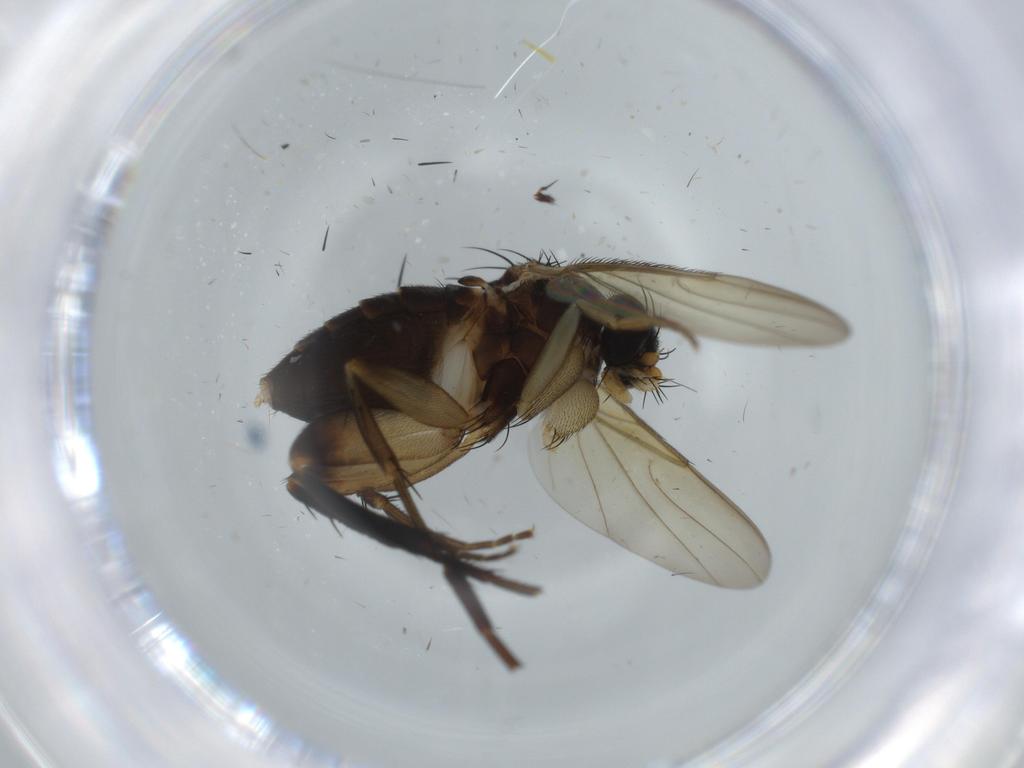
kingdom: Animalia
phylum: Arthropoda
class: Insecta
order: Diptera
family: Phoridae
